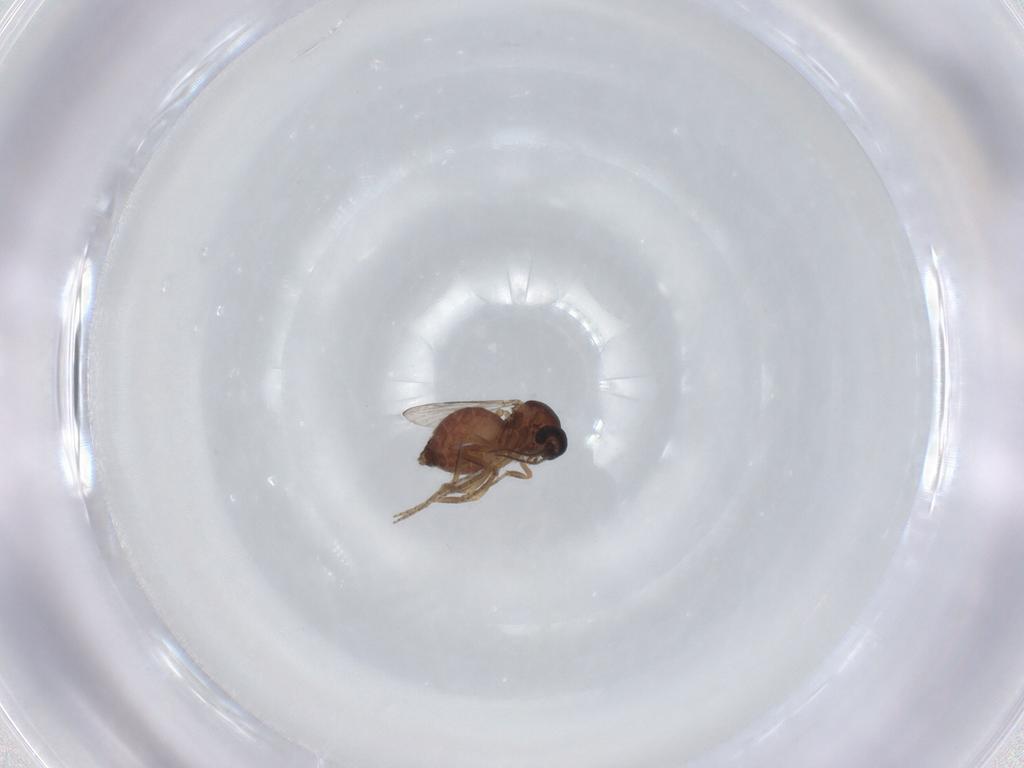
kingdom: Animalia
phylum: Arthropoda
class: Insecta
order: Diptera
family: Ceratopogonidae
